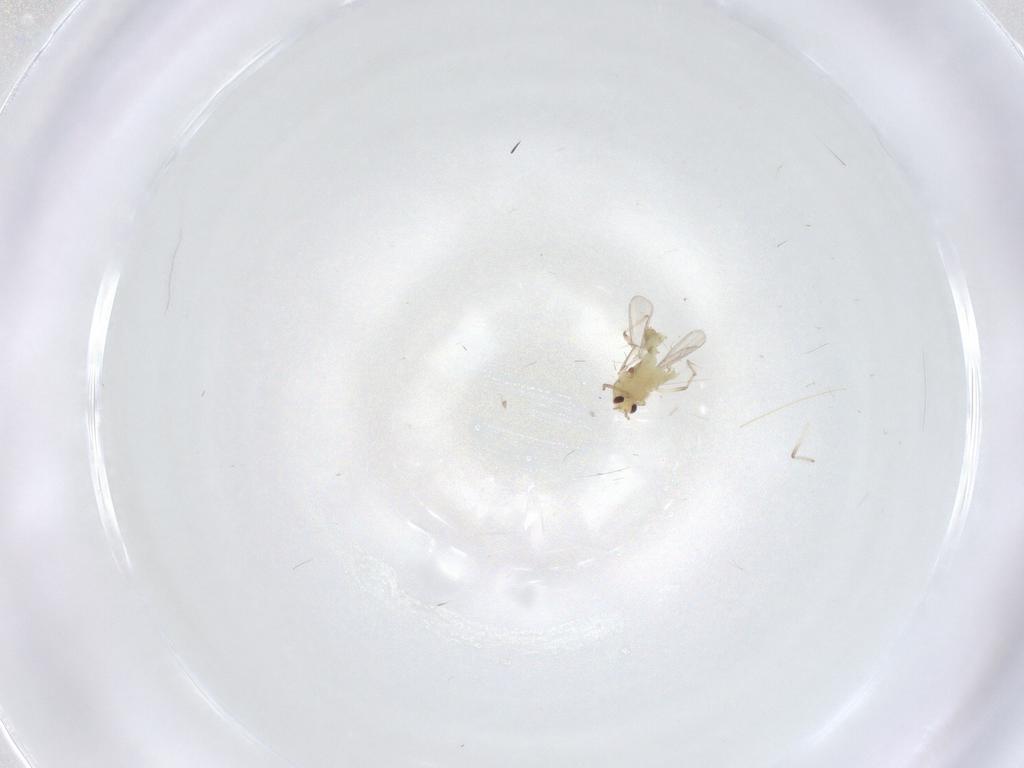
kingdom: Animalia
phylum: Arthropoda
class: Insecta
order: Diptera
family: Chironomidae
